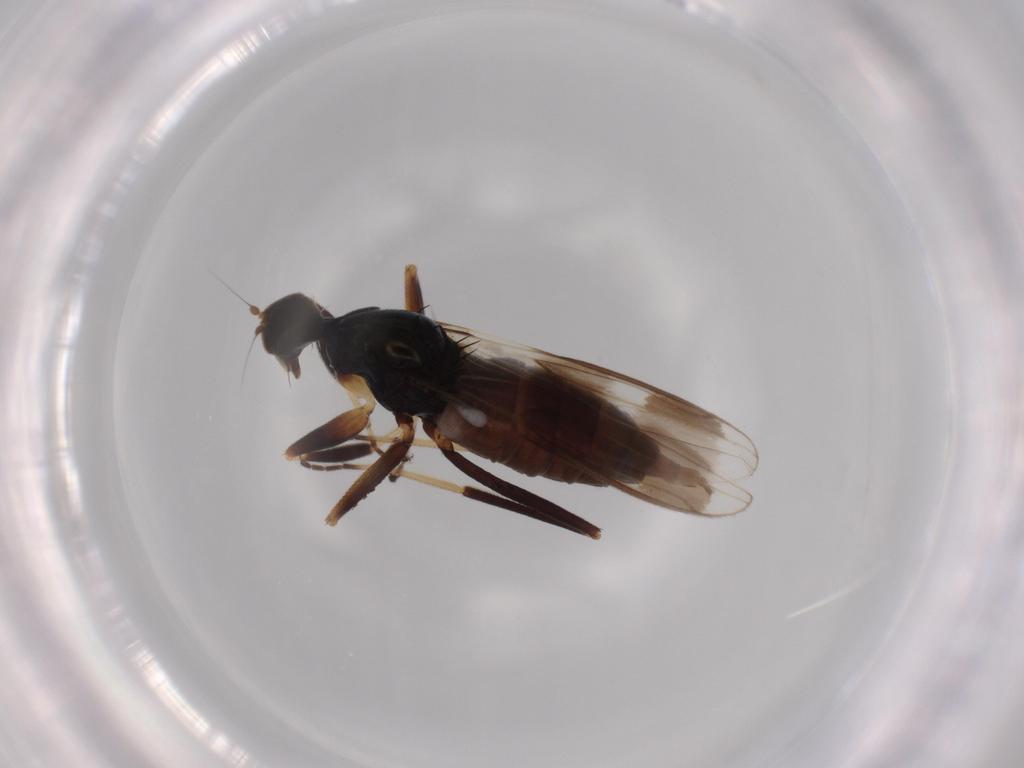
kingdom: Animalia
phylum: Arthropoda
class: Insecta
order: Diptera
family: Hybotidae
